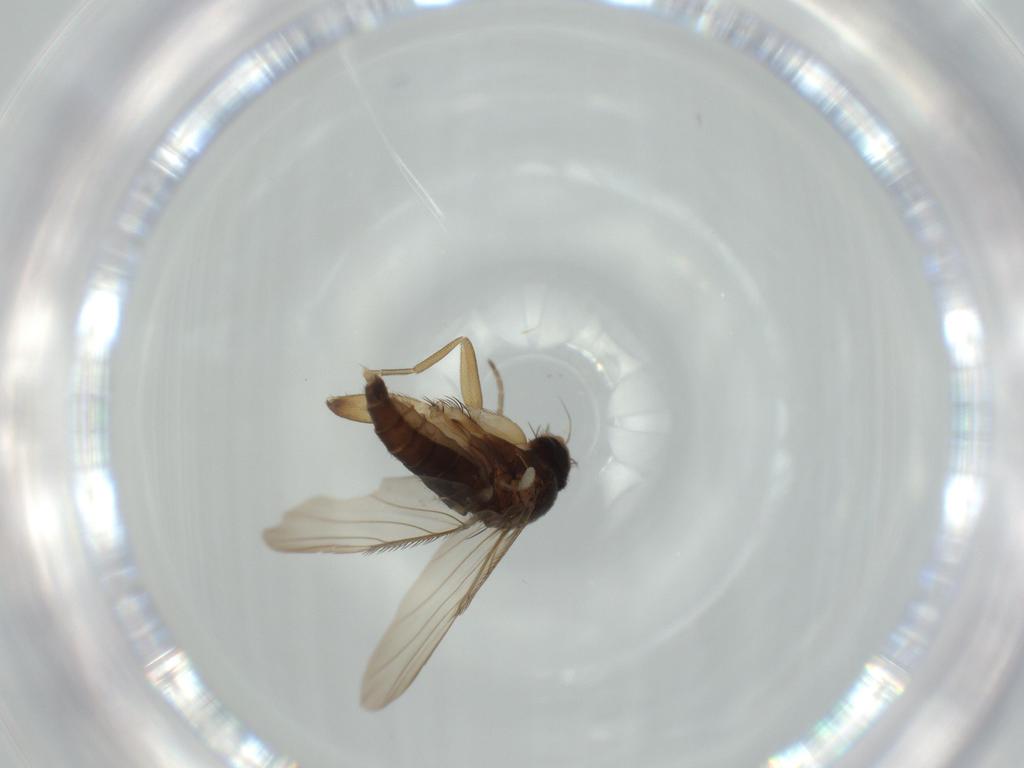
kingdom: Animalia
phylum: Arthropoda
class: Insecta
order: Diptera
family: Phoridae
